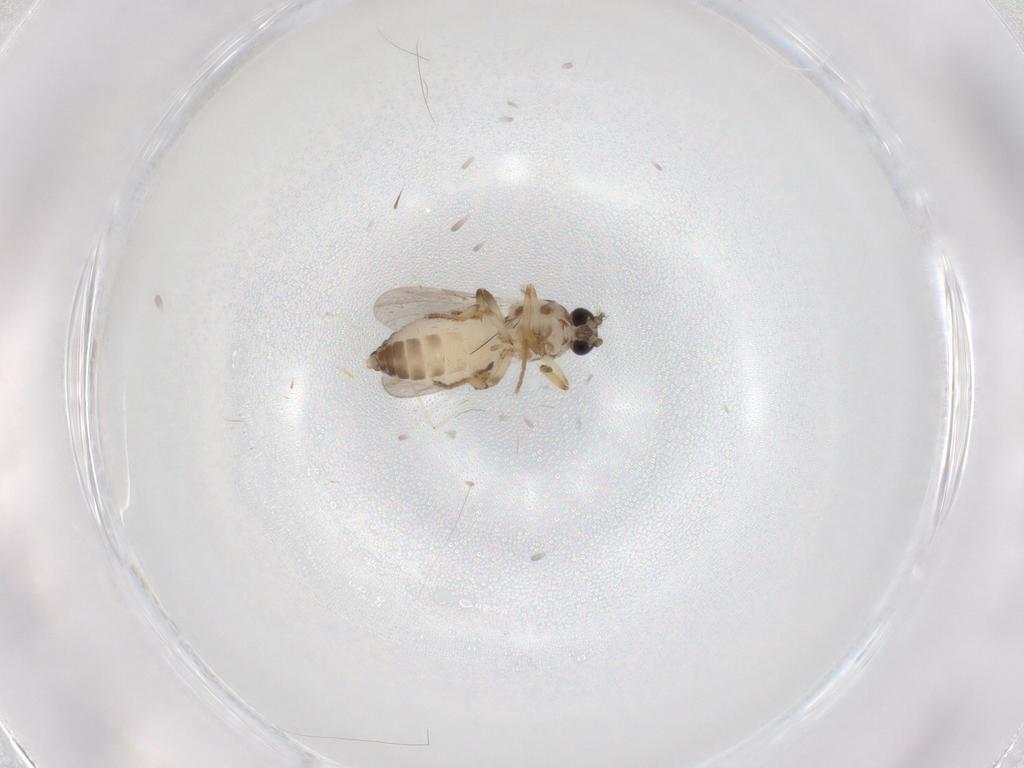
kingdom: Animalia
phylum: Arthropoda
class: Insecta
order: Diptera
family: Ceratopogonidae
